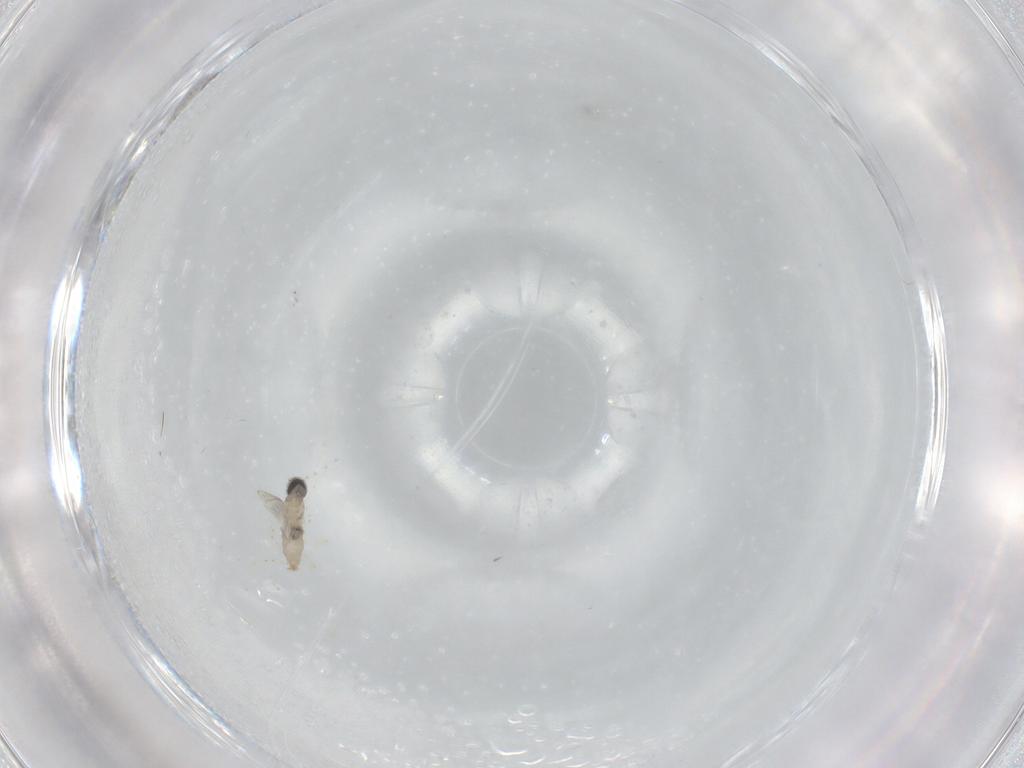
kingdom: Animalia
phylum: Arthropoda
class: Insecta
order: Diptera
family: Cecidomyiidae
